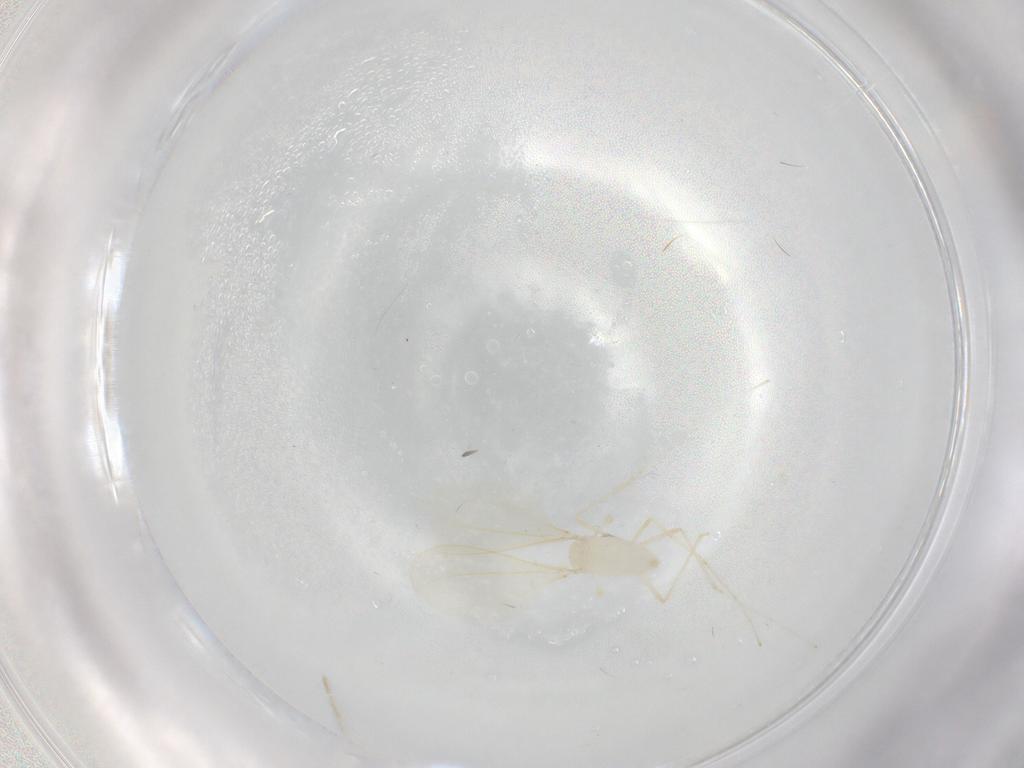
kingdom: Animalia
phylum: Arthropoda
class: Insecta
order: Diptera
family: Cecidomyiidae
